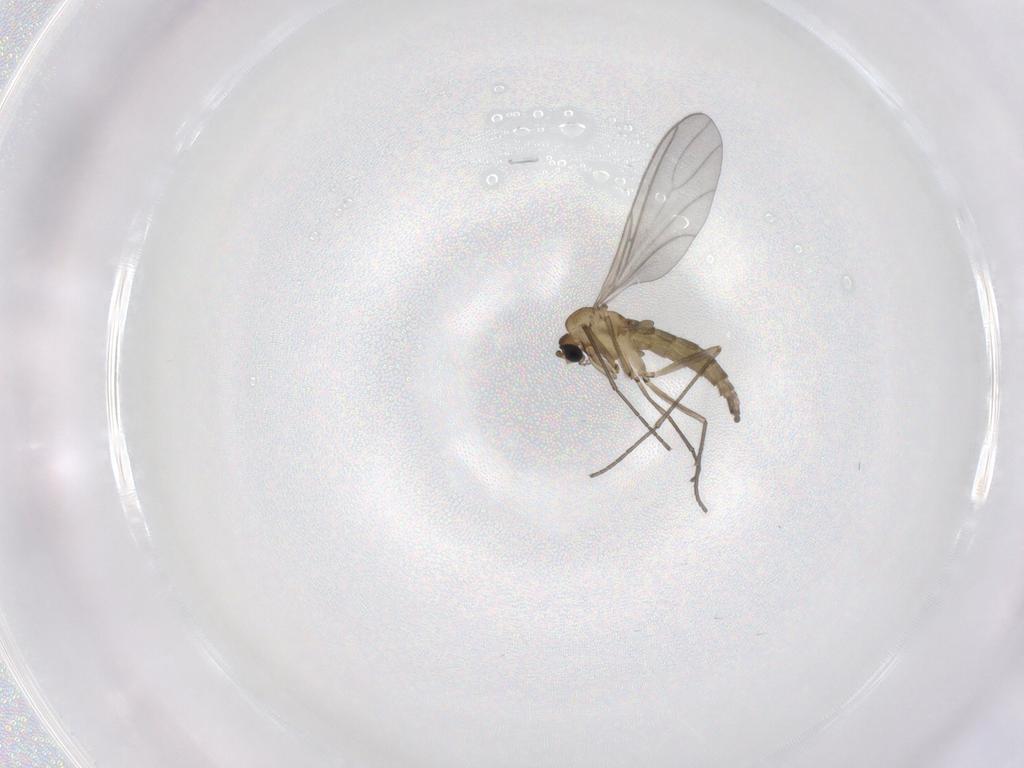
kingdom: Animalia
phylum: Arthropoda
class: Insecta
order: Diptera
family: Sciaridae
